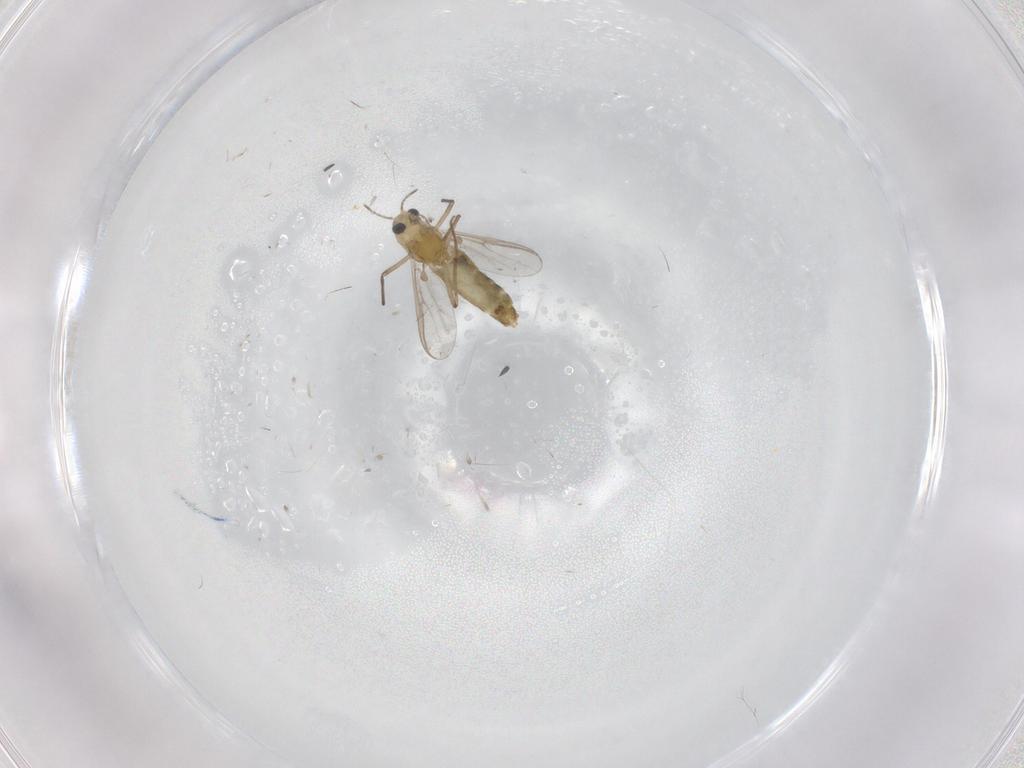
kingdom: Animalia
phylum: Arthropoda
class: Insecta
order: Diptera
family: Chironomidae
